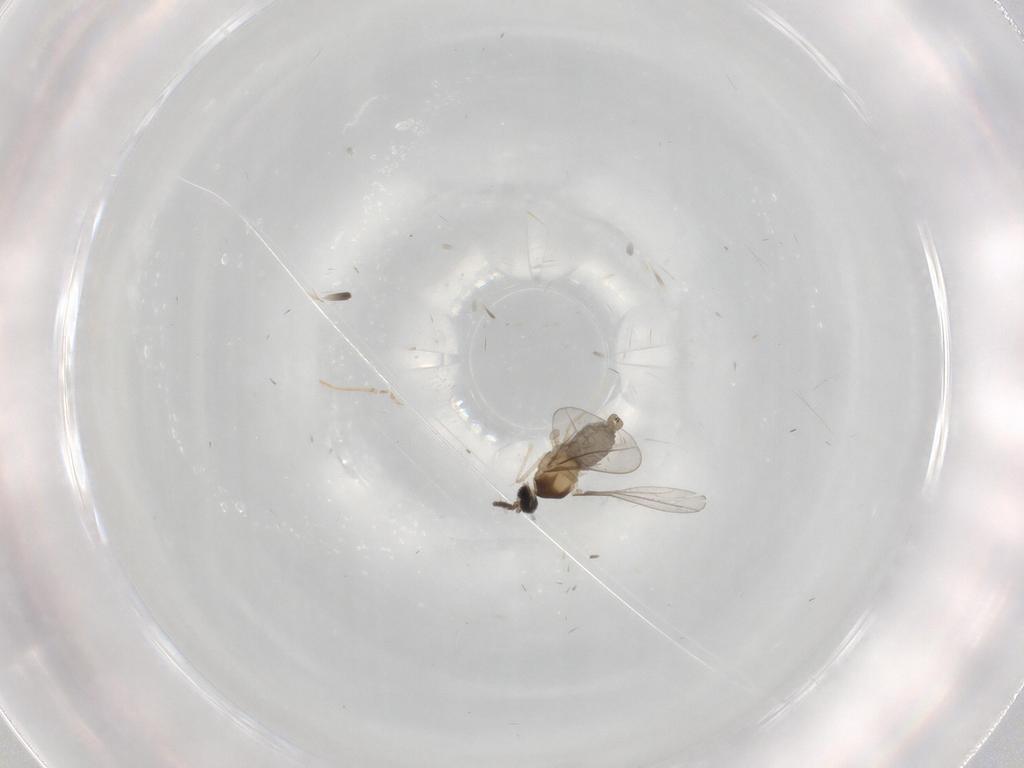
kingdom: Animalia
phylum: Arthropoda
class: Insecta
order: Diptera
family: Cecidomyiidae
